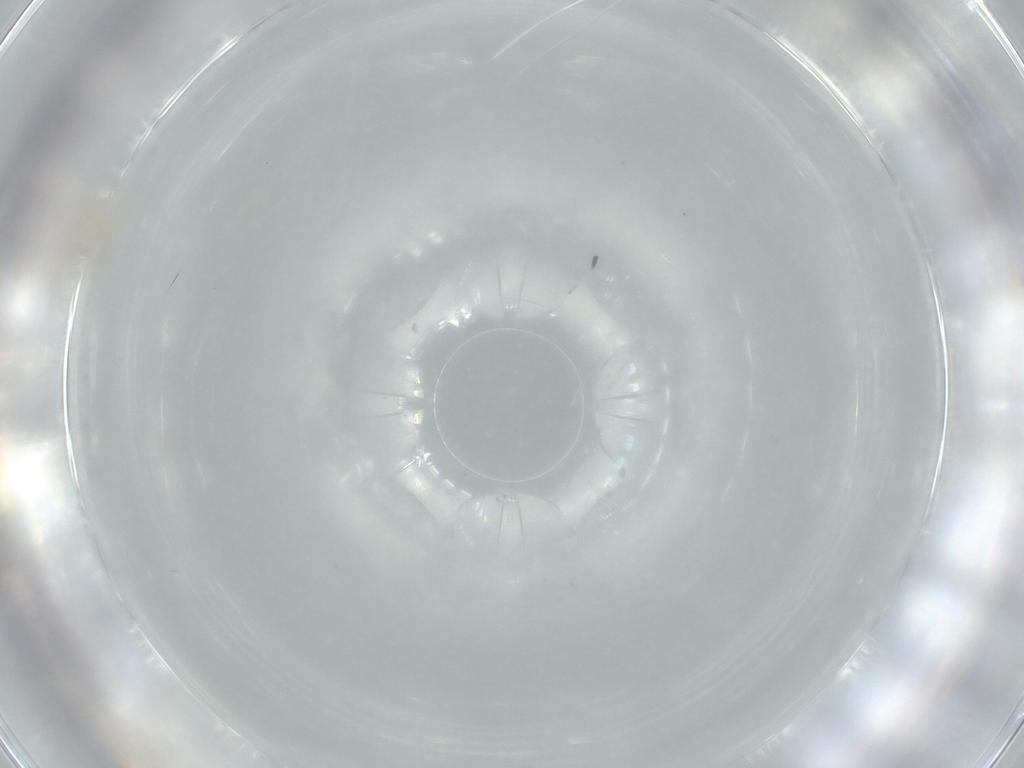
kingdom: Animalia
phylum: Arthropoda
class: Insecta
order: Diptera
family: Cecidomyiidae
